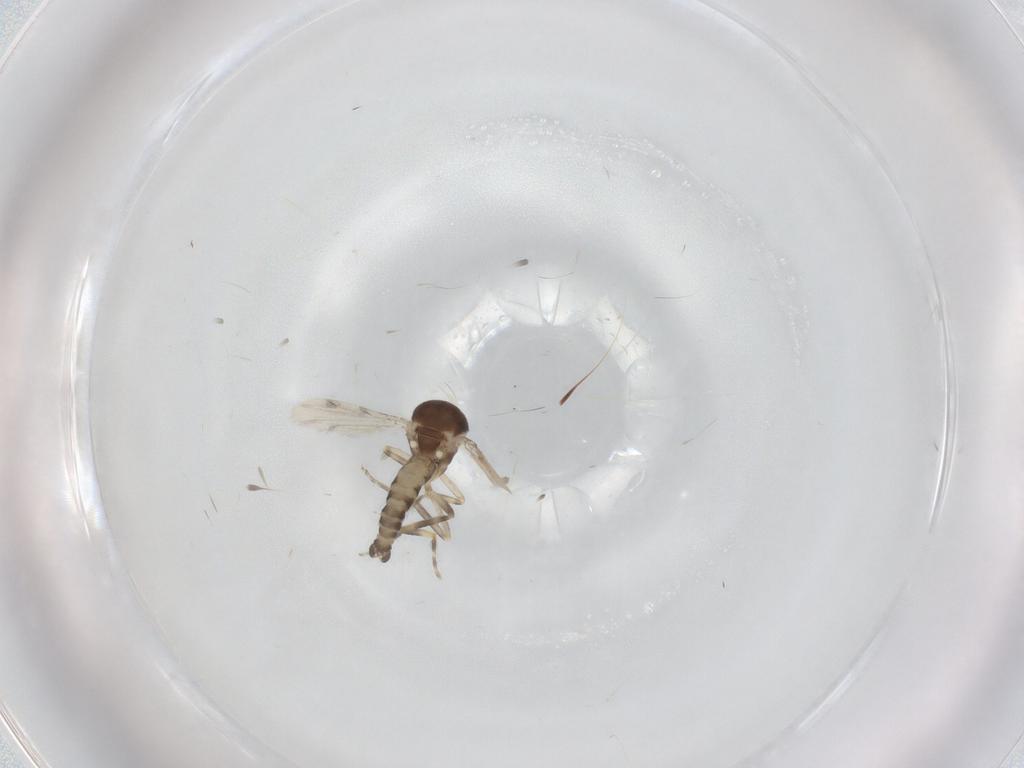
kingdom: Animalia
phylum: Arthropoda
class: Insecta
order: Diptera
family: Ceratopogonidae
